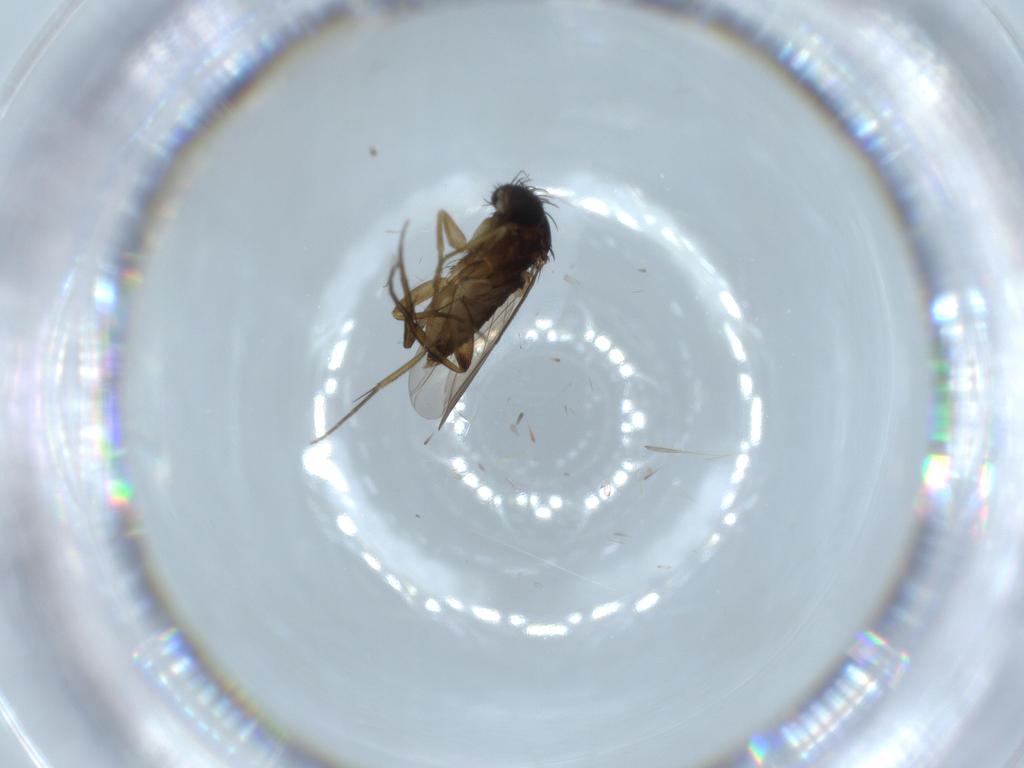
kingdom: Animalia
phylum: Arthropoda
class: Insecta
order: Diptera
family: Phoridae
